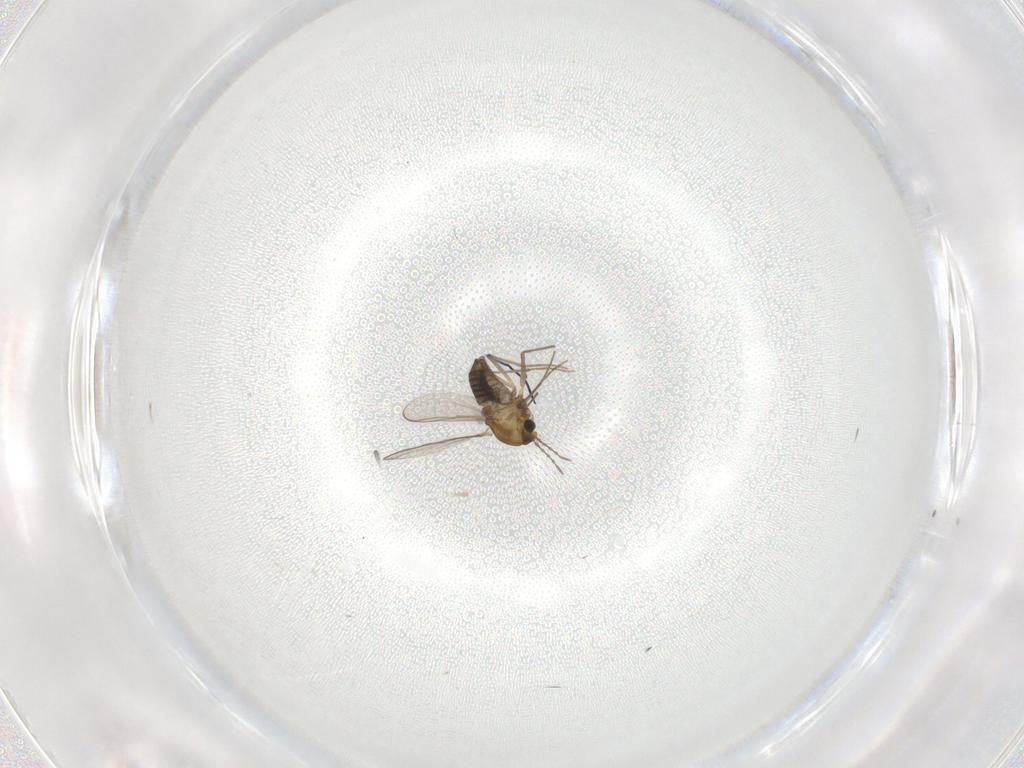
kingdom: Animalia
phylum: Arthropoda
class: Insecta
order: Diptera
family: Chironomidae
